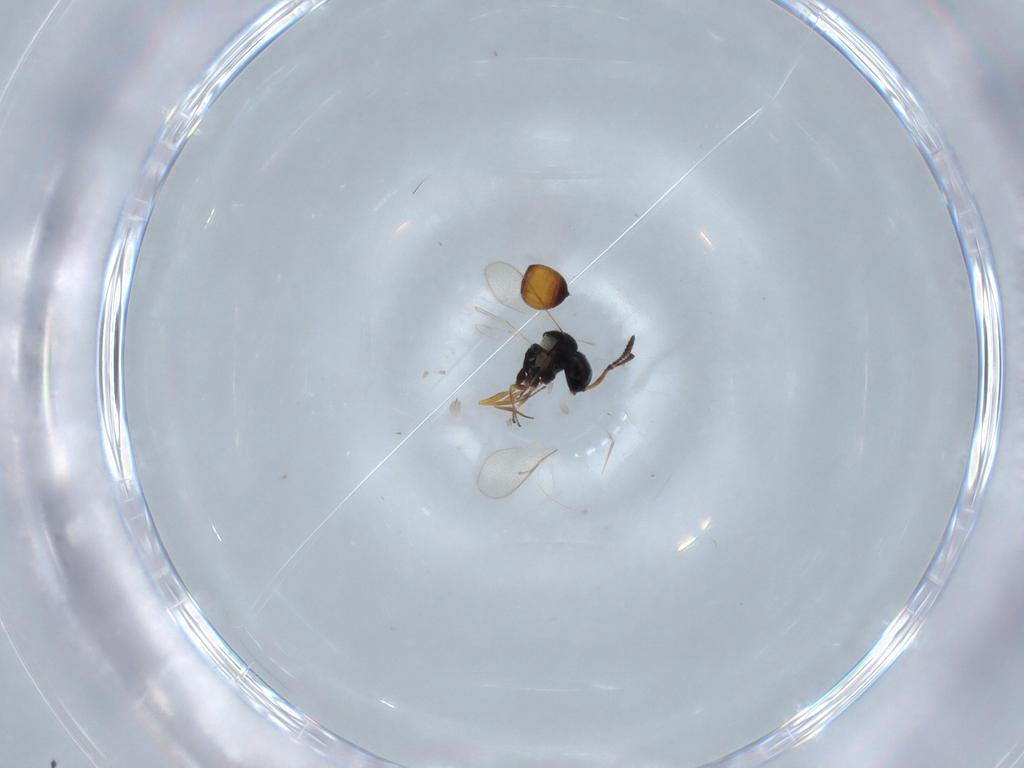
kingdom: Animalia
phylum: Arthropoda
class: Insecta
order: Hymenoptera
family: Scelionidae
